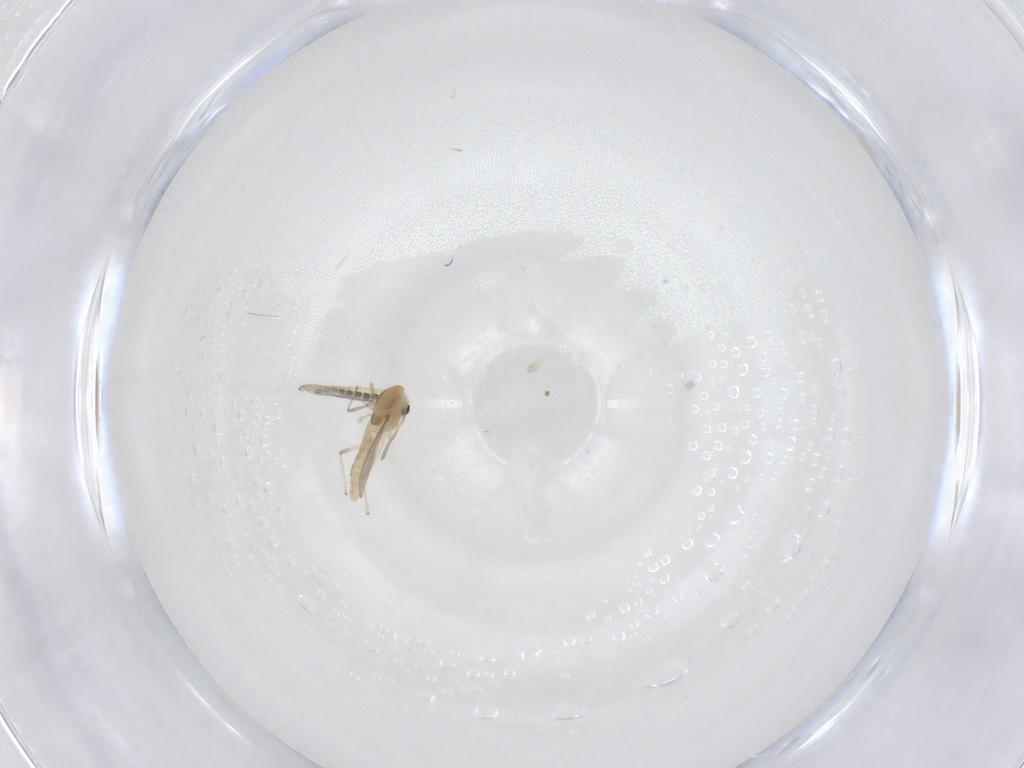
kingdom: Animalia
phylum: Arthropoda
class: Insecta
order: Diptera
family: Limoniidae
